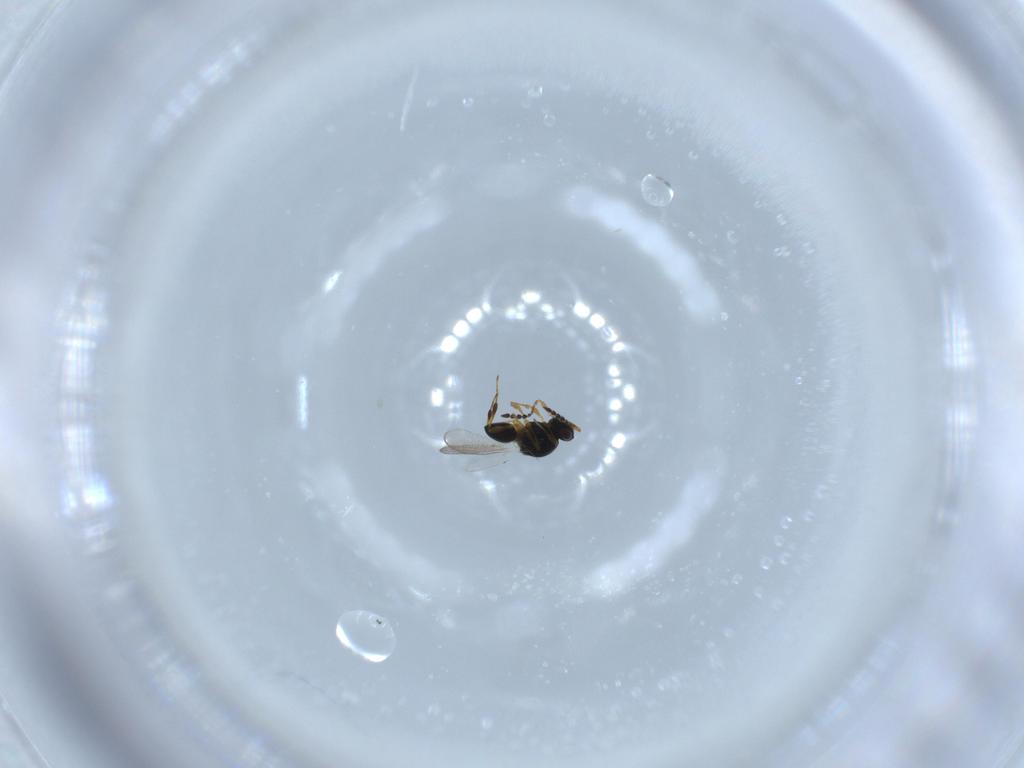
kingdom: Animalia
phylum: Arthropoda
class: Insecta
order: Hymenoptera
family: Platygastridae
